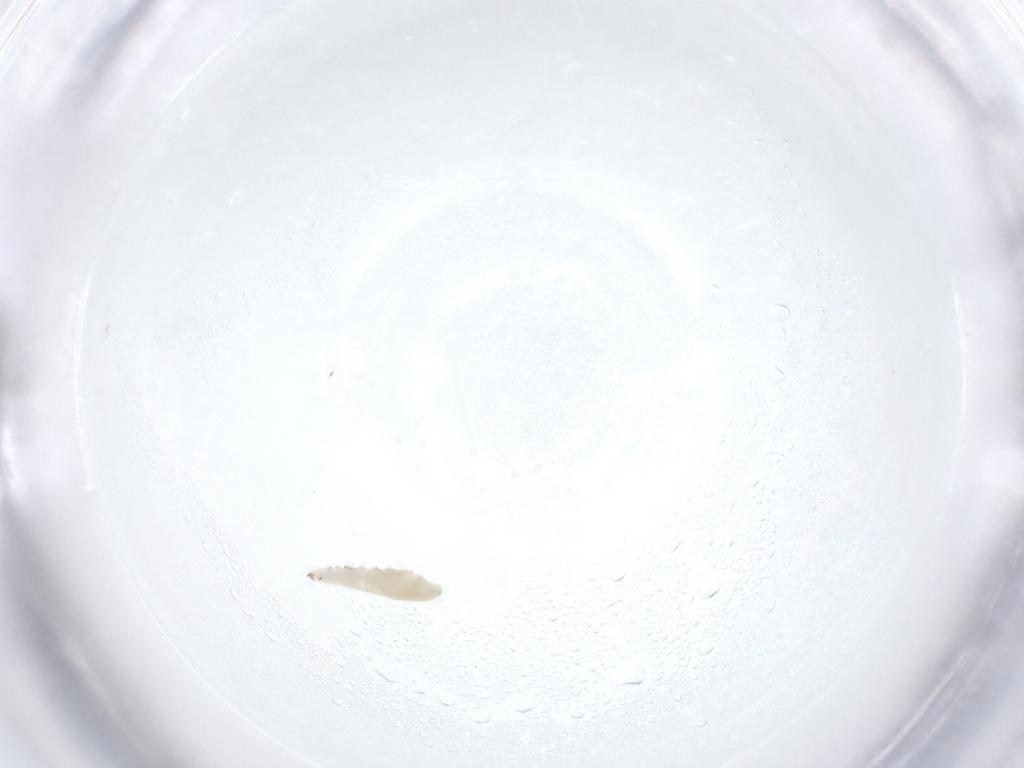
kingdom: Animalia
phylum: Arthropoda
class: Insecta
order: Diptera
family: Cecidomyiidae
